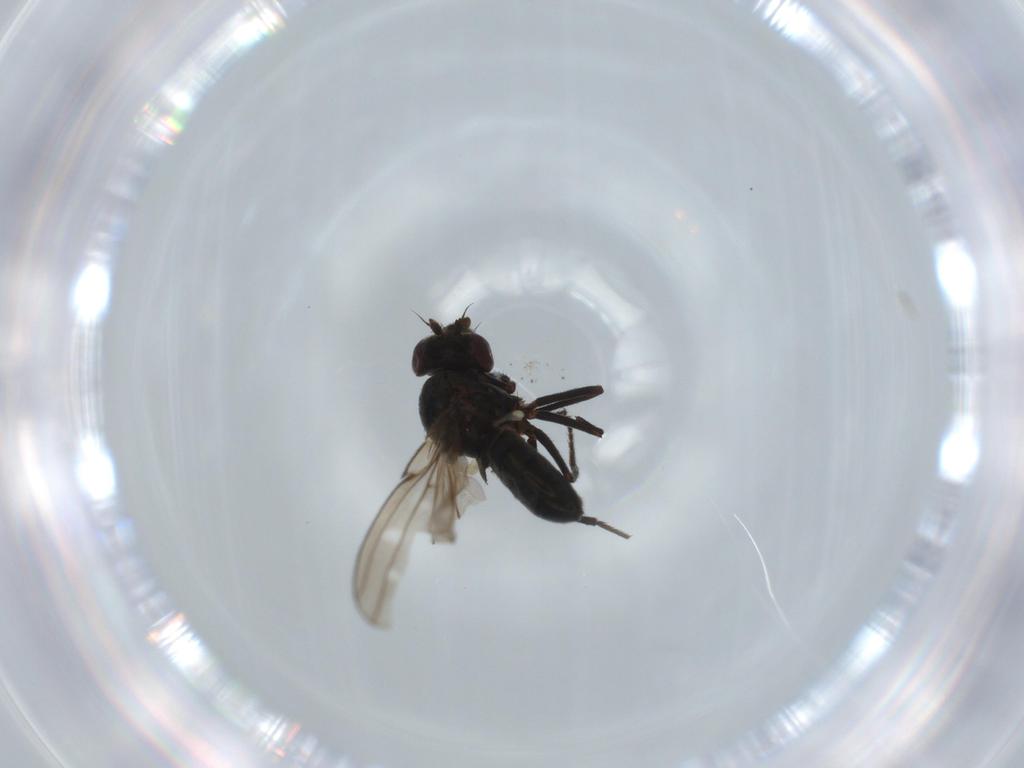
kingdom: Animalia
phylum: Arthropoda
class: Insecta
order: Diptera
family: Ephydridae
